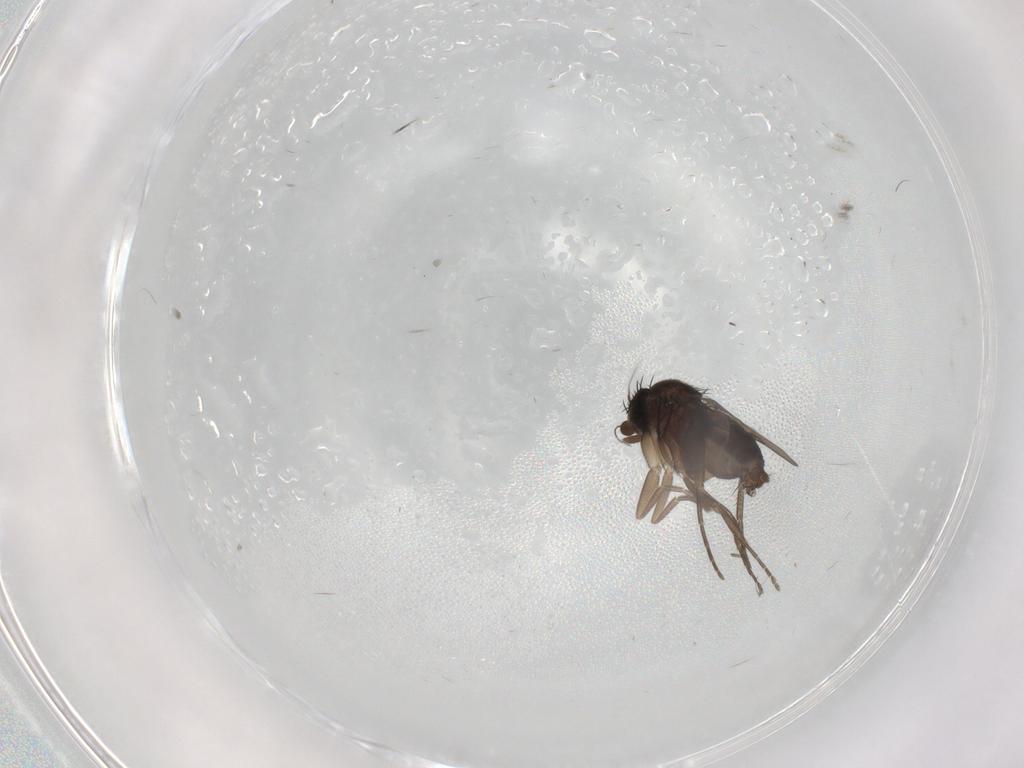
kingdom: Animalia
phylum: Arthropoda
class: Insecta
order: Diptera
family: Phoridae
